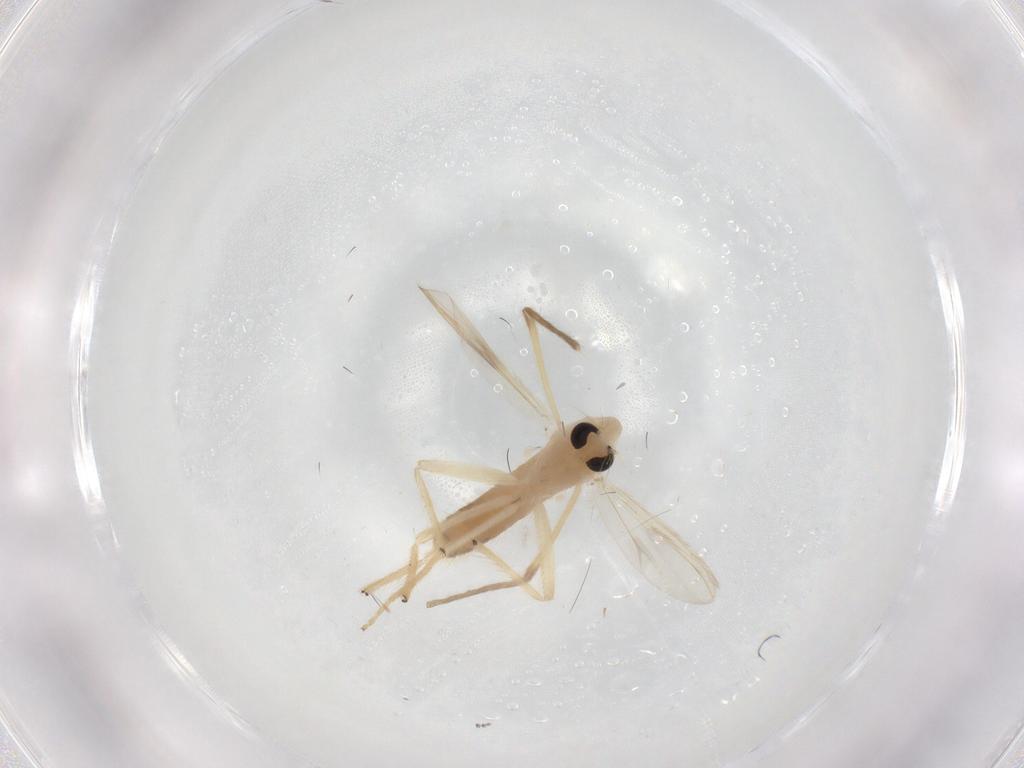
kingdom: Animalia
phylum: Arthropoda
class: Insecta
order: Diptera
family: Chironomidae
